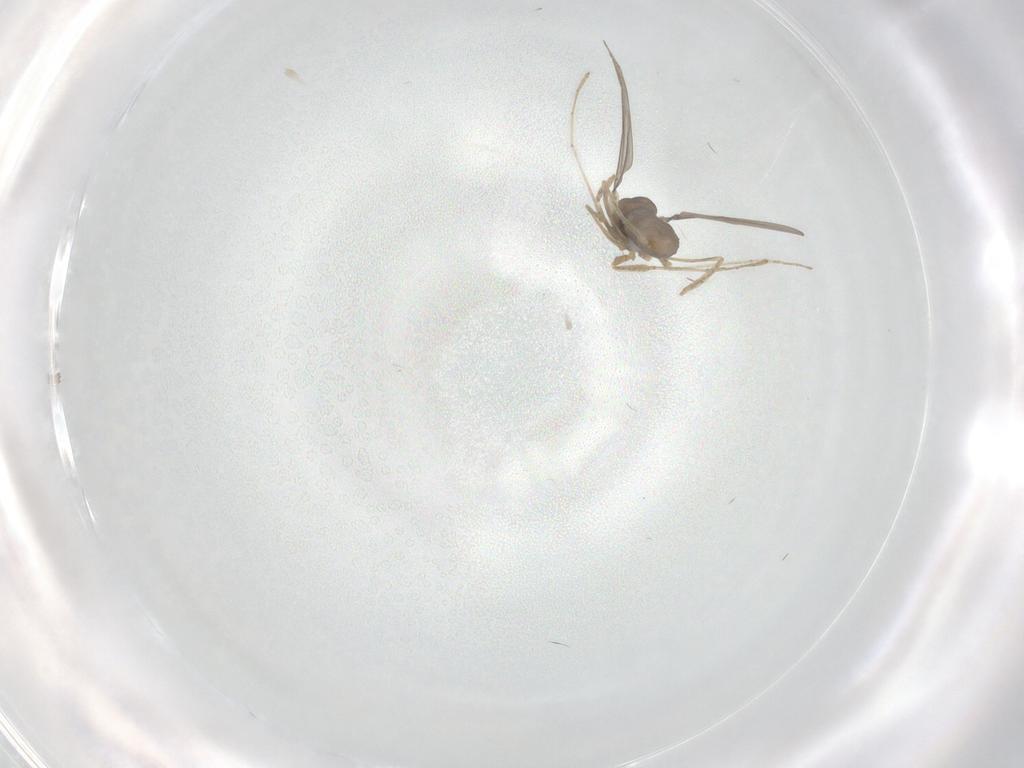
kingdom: Animalia
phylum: Arthropoda
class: Insecta
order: Diptera
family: Cecidomyiidae
